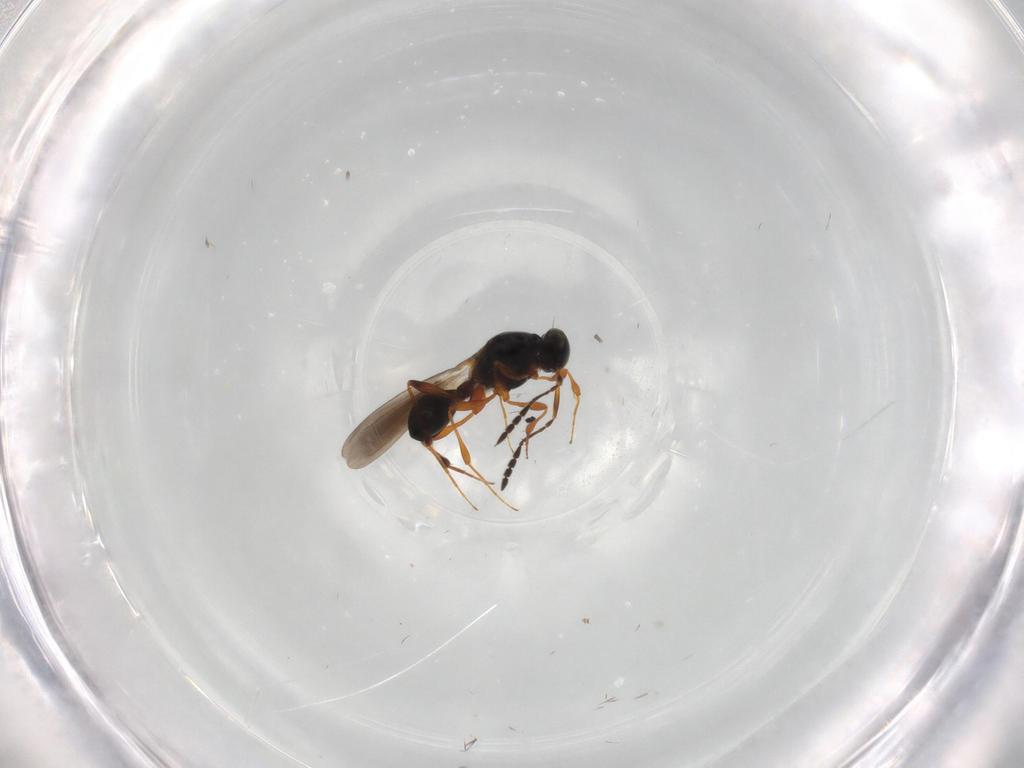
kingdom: Animalia
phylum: Arthropoda
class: Insecta
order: Hymenoptera
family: Platygastridae
